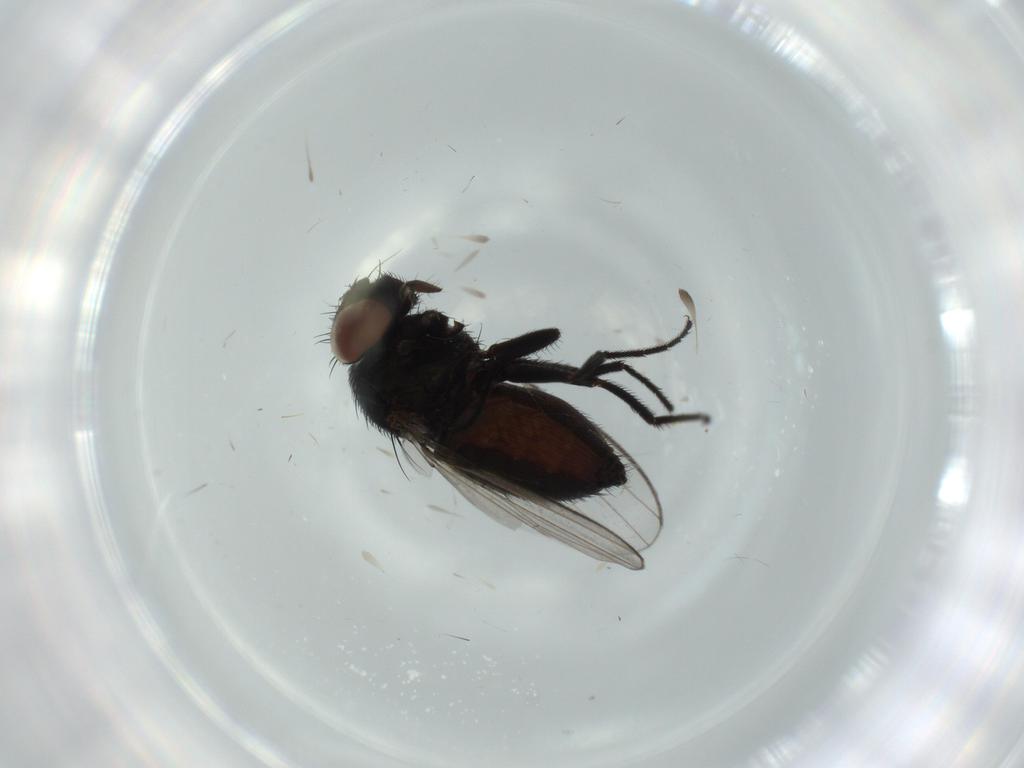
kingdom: Animalia
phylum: Arthropoda
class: Insecta
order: Diptera
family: Milichiidae
